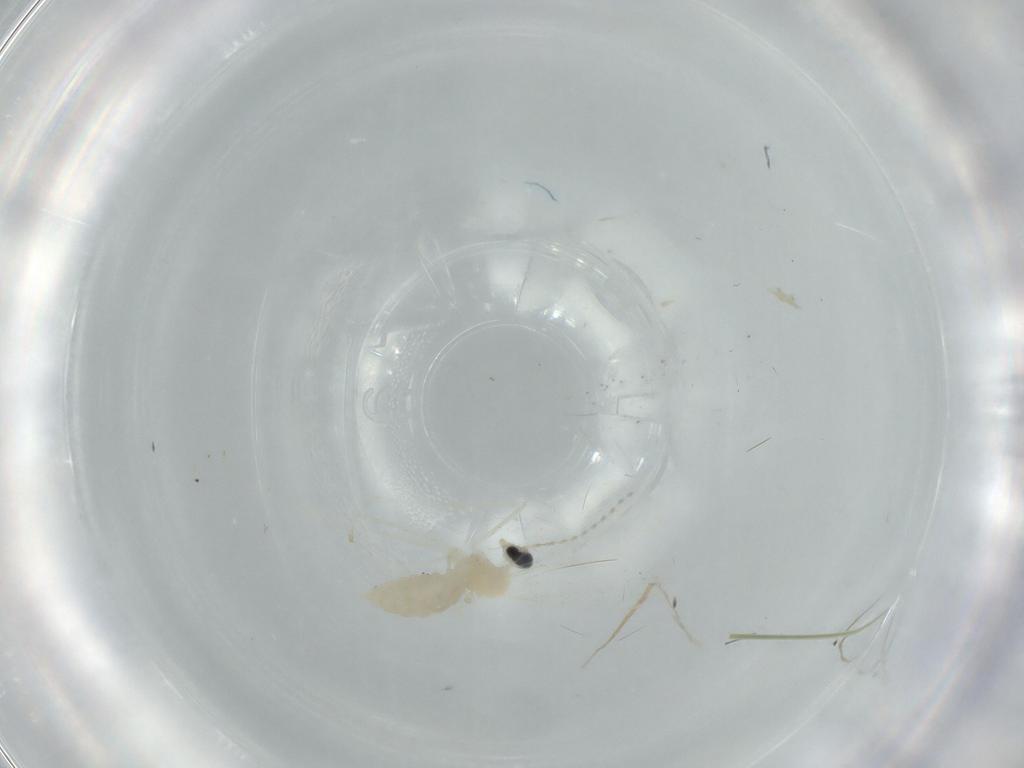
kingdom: Animalia
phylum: Arthropoda
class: Insecta
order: Diptera
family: Cecidomyiidae
